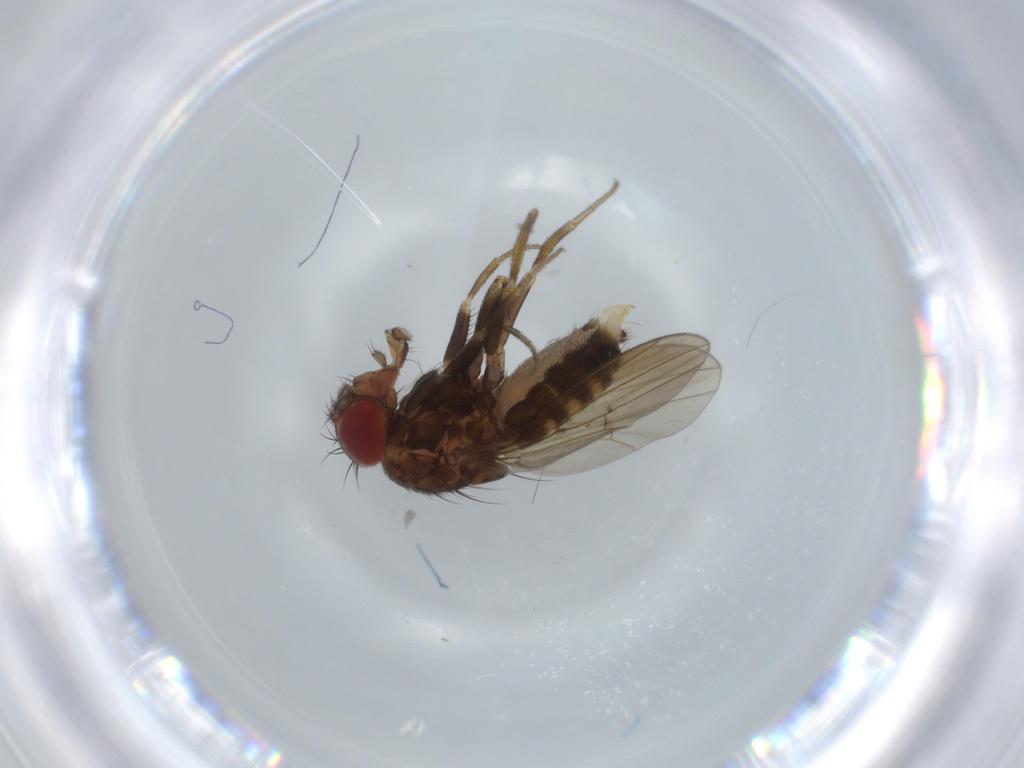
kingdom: Animalia
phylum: Arthropoda
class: Insecta
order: Diptera
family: Drosophilidae
